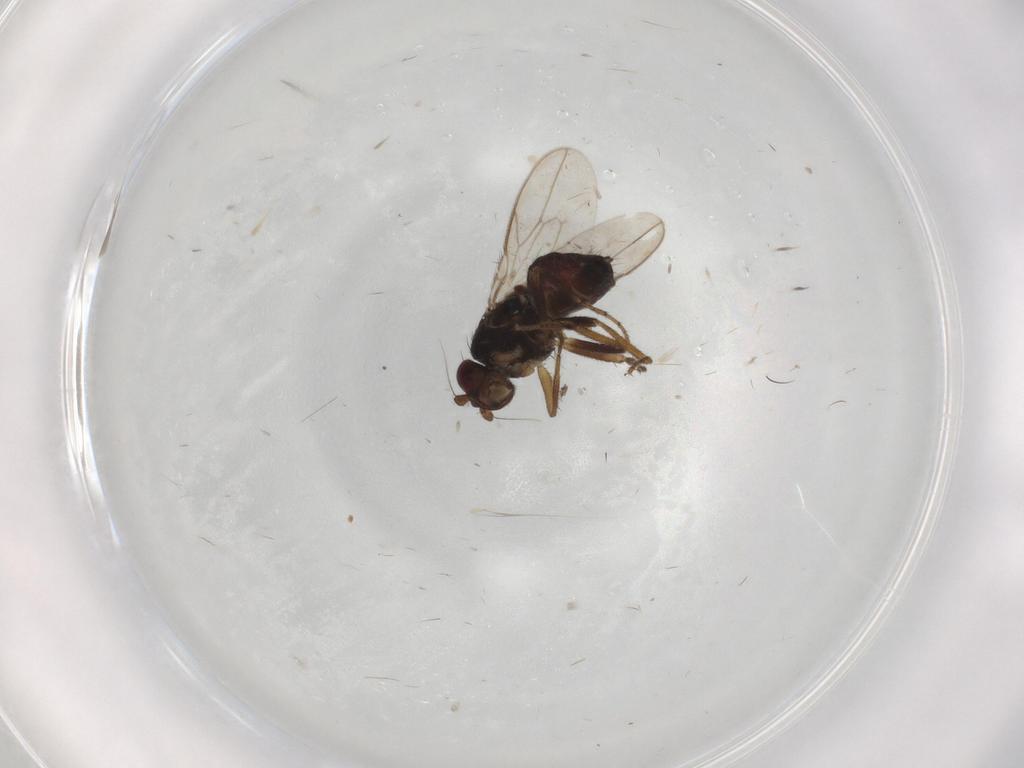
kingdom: Animalia
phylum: Arthropoda
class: Insecta
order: Diptera
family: Sphaeroceridae
